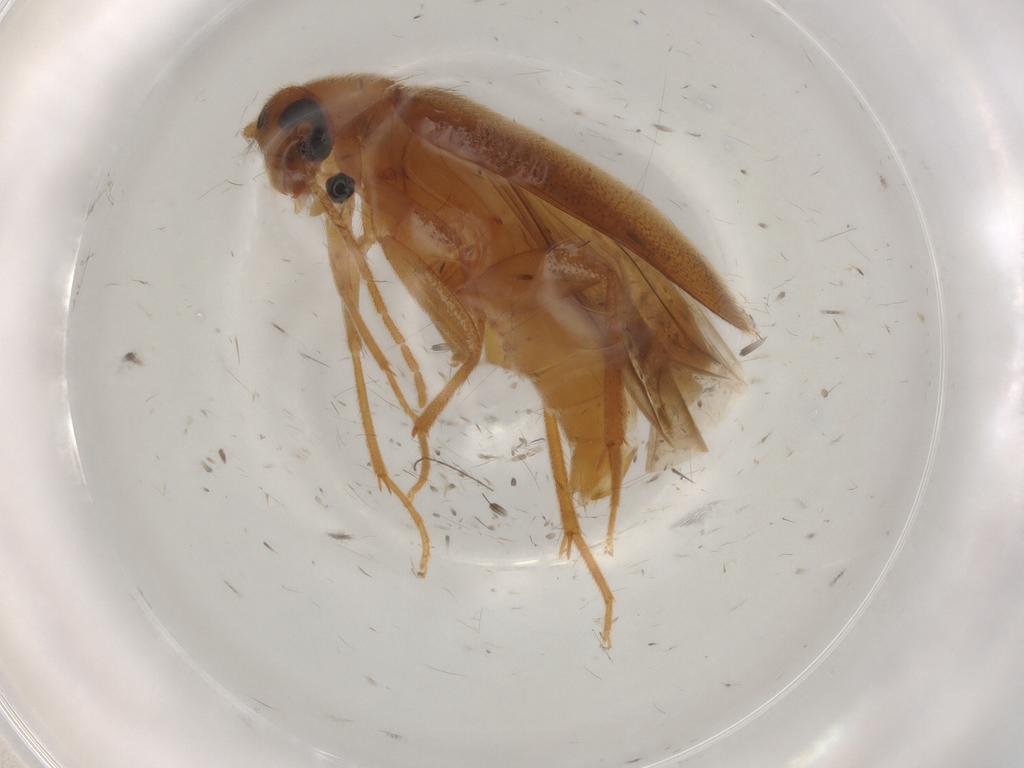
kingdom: Animalia
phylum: Arthropoda
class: Insecta
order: Coleoptera
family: Scraptiidae
